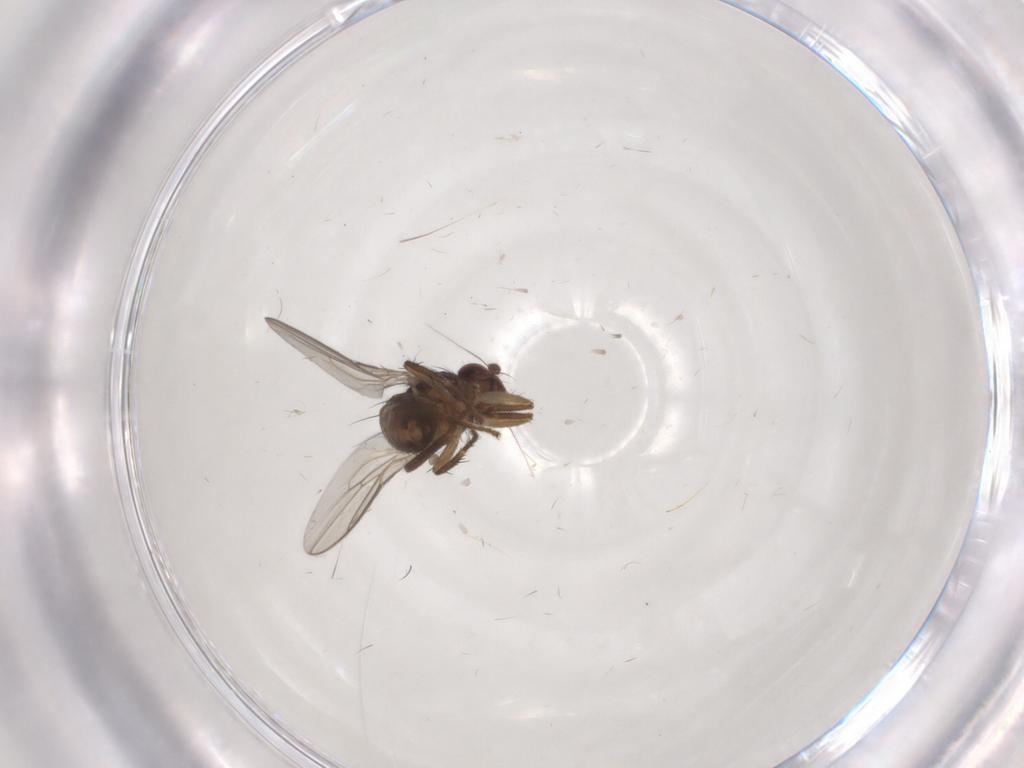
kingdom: Animalia
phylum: Arthropoda
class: Insecta
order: Diptera
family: Sphaeroceridae
